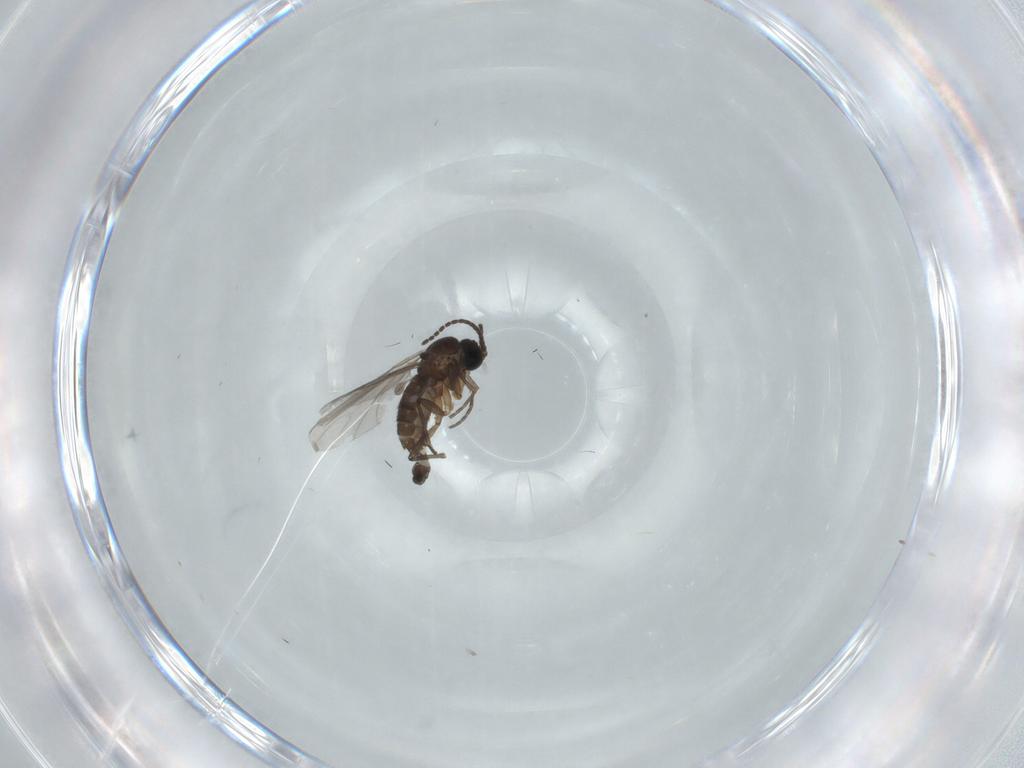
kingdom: Animalia
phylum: Arthropoda
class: Insecta
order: Diptera
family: Sciaridae
